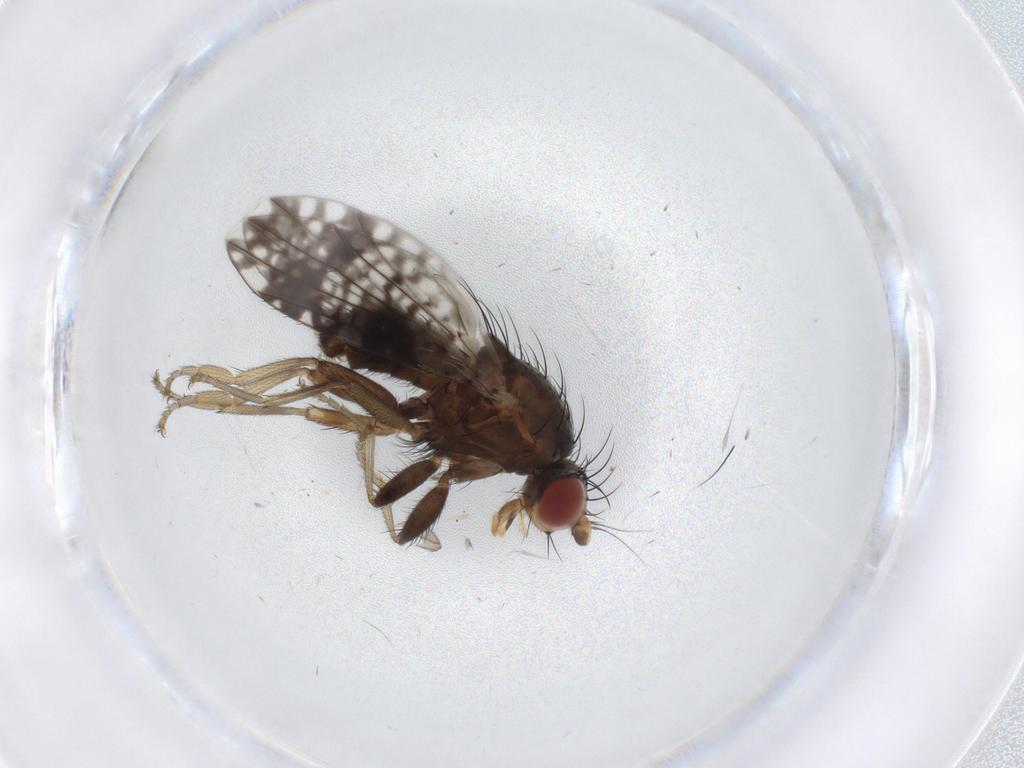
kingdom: Animalia
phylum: Arthropoda
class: Insecta
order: Diptera
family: Tephritidae
